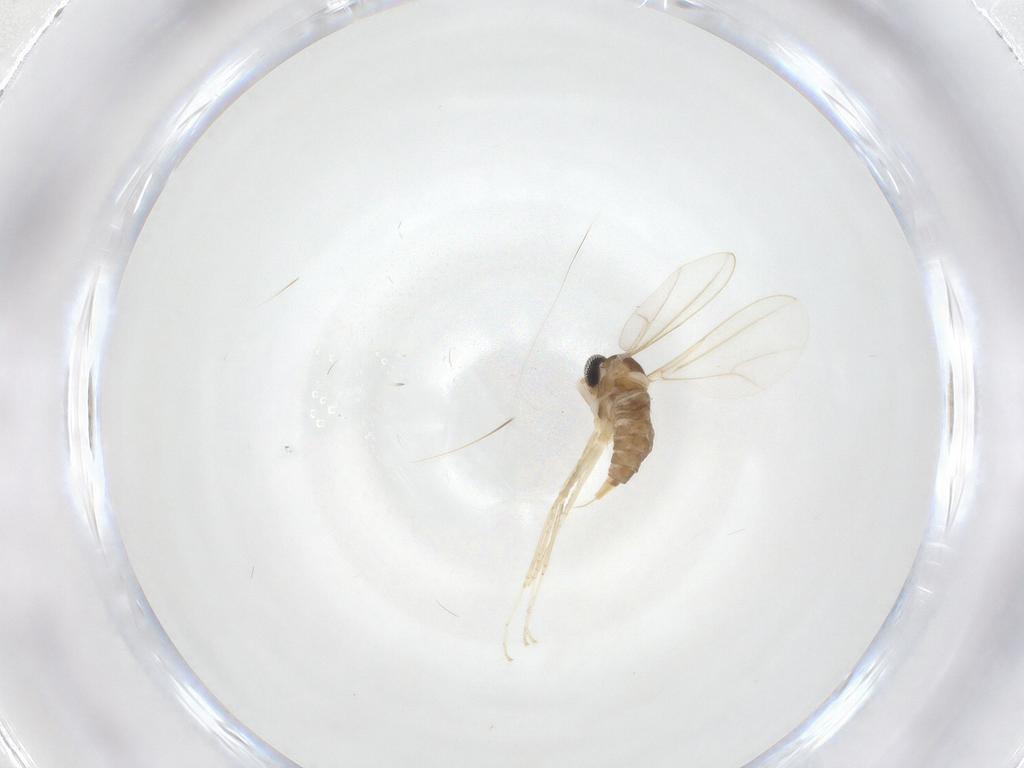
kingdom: Animalia
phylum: Arthropoda
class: Insecta
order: Diptera
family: Cecidomyiidae
